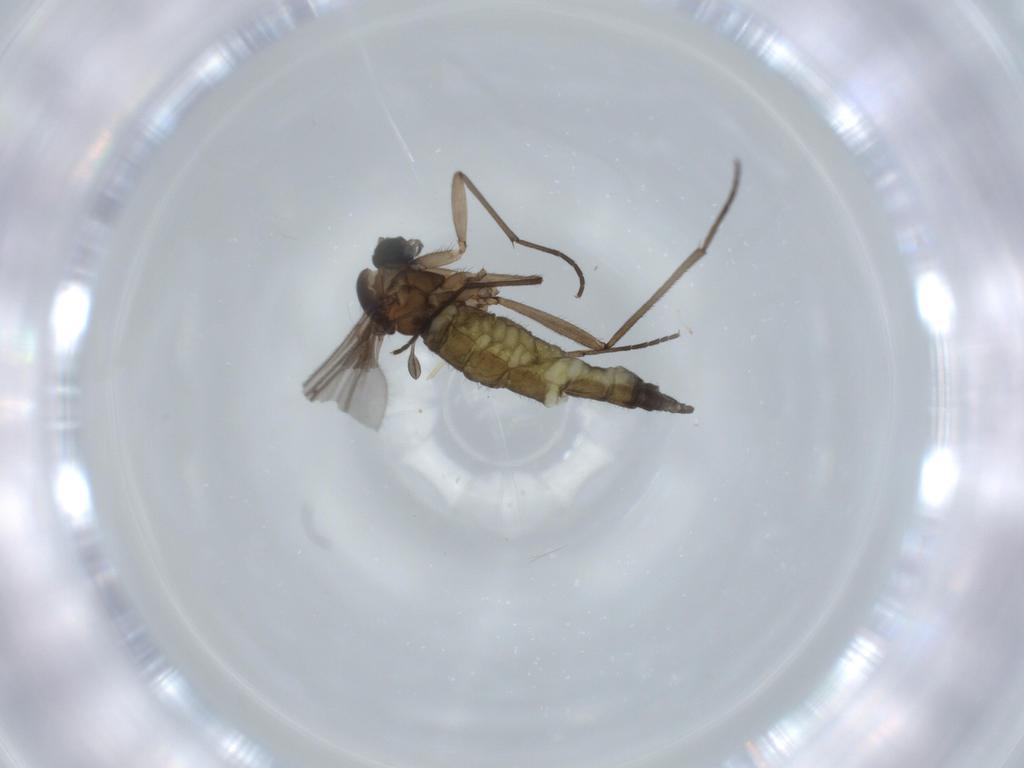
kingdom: Animalia
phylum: Arthropoda
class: Insecta
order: Diptera
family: Sciaridae
